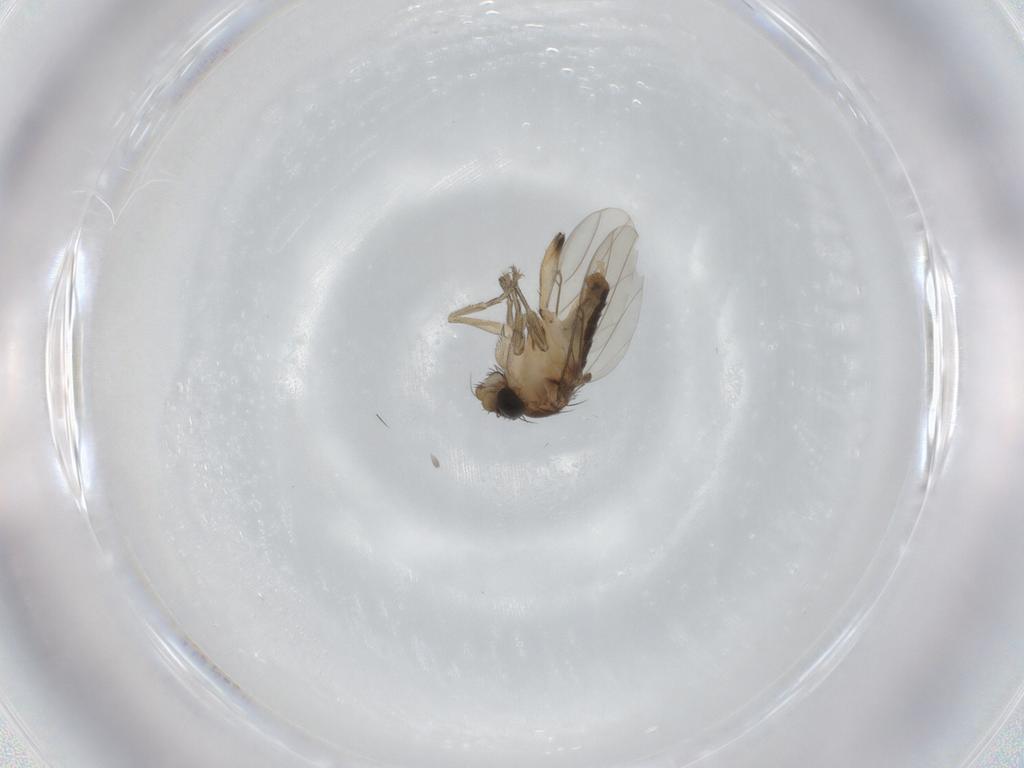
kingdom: Animalia
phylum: Arthropoda
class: Insecta
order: Diptera
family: Phoridae
